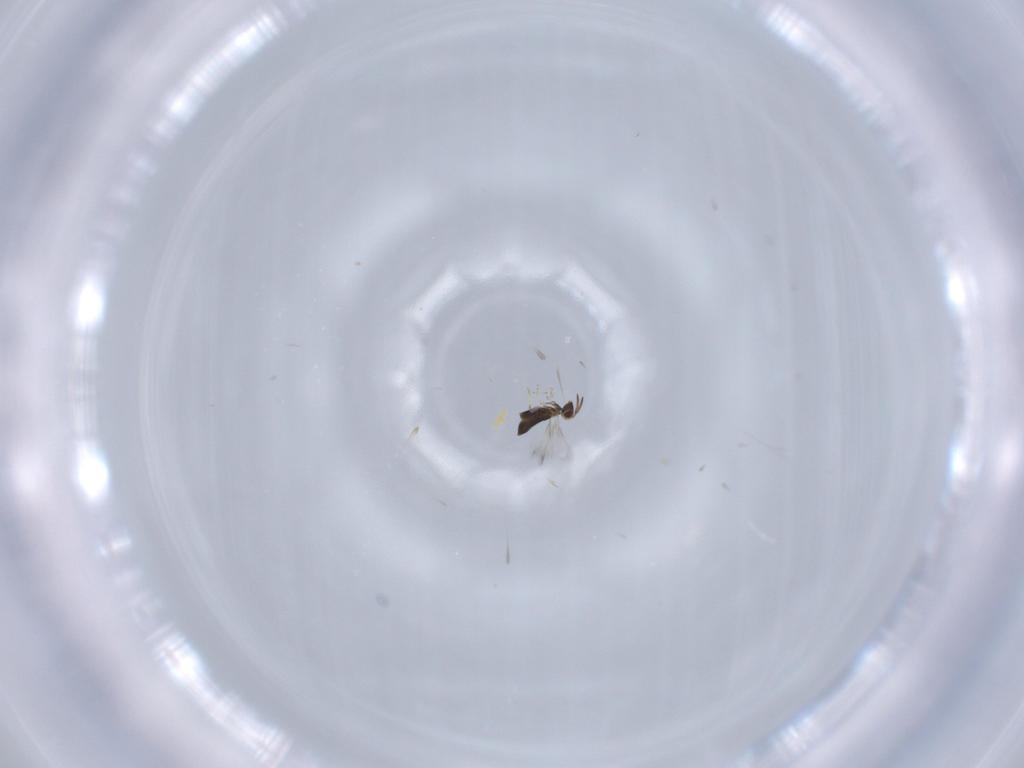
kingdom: Animalia
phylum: Arthropoda
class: Insecta
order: Hymenoptera
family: Signiphoridae
